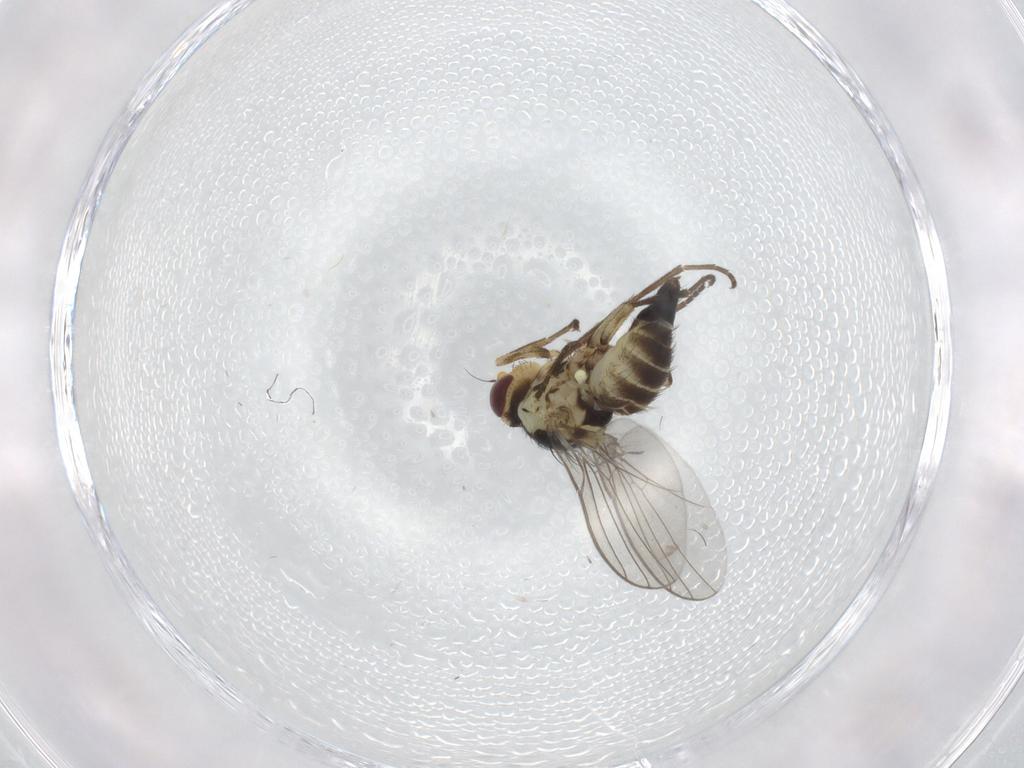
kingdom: Animalia
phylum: Arthropoda
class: Insecta
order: Diptera
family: Agromyzidae
